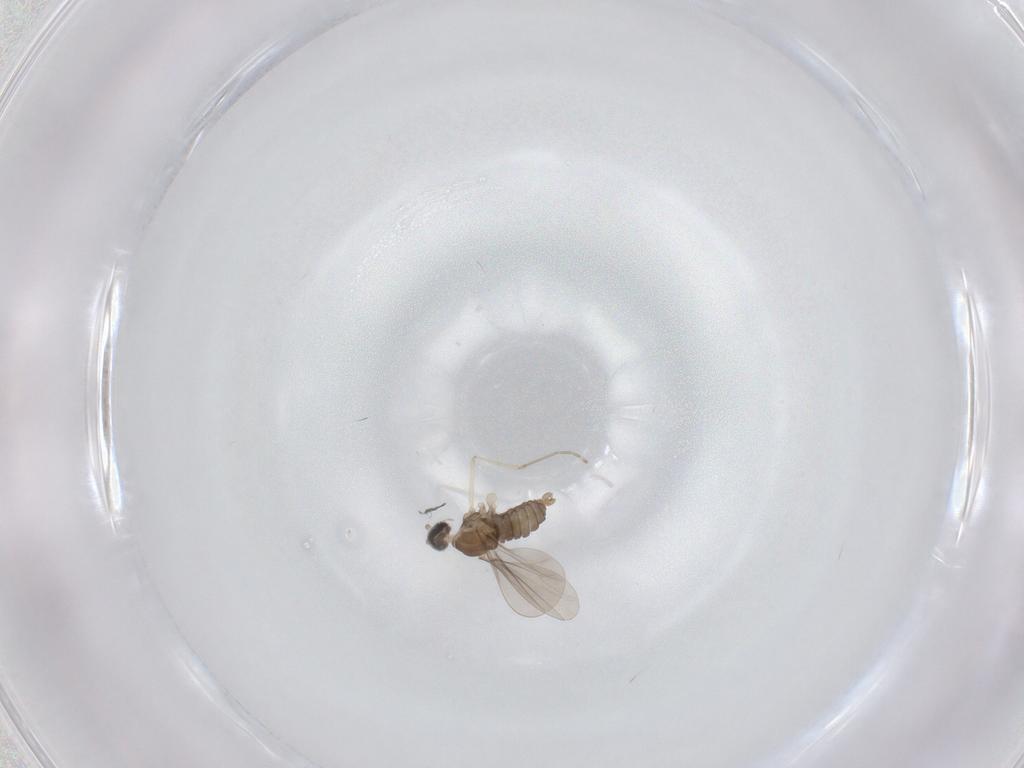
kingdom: Animalia
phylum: Arthropoda
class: Insecta
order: Diptera
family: Cecidomyiidae
